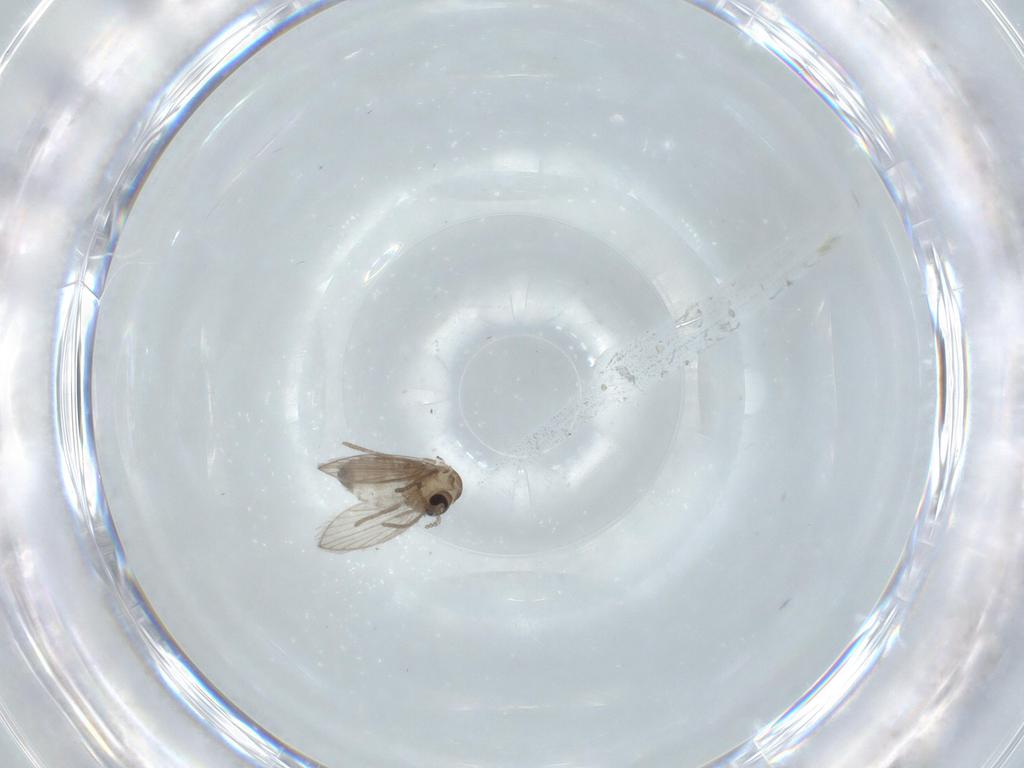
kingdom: Animalia
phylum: Arthropoda
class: Insecta
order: Diptera
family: Psychodidae
